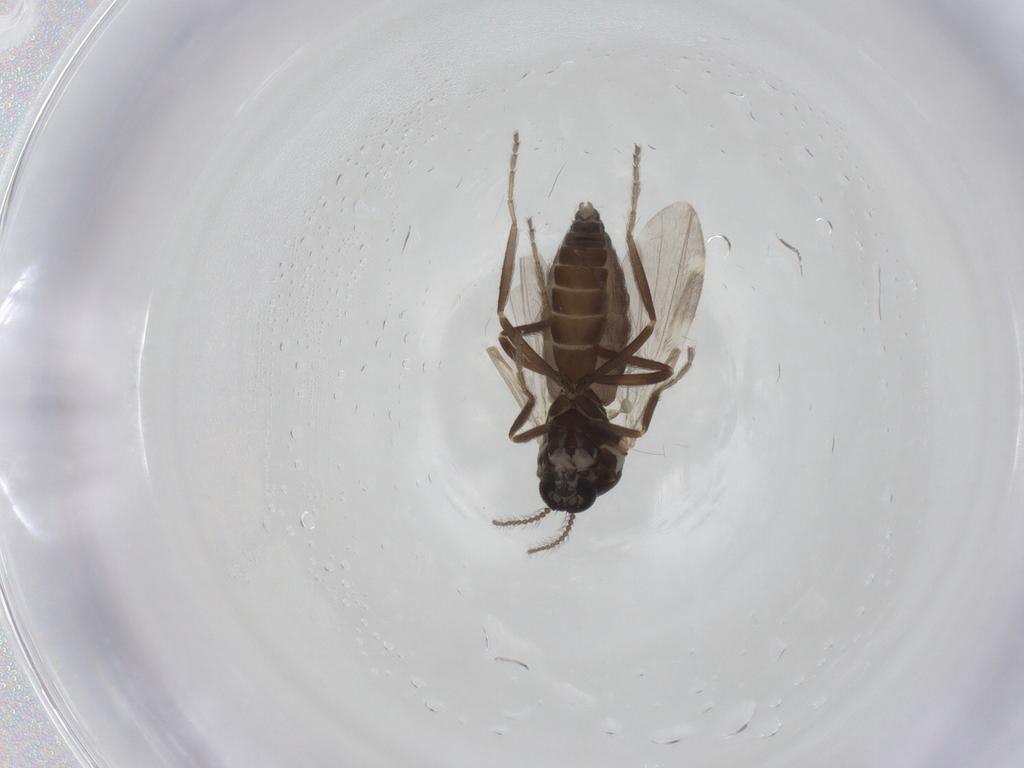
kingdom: Animalia
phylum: Arthropoda
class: Insecta
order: Diptera
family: Ceratopogonidae
